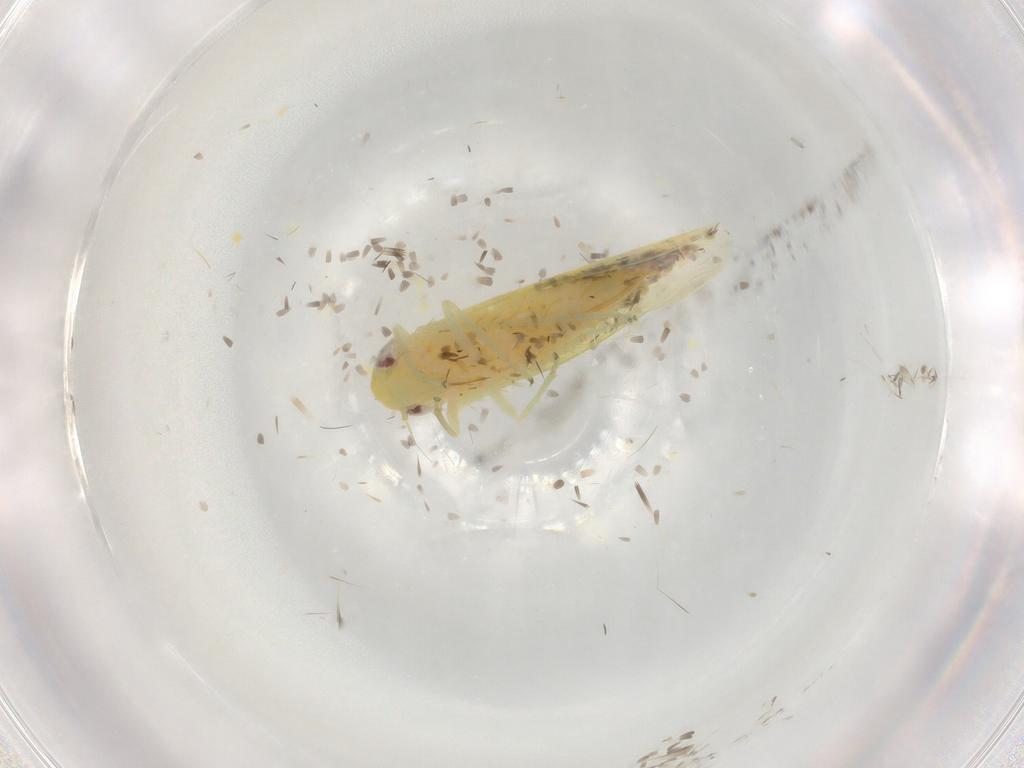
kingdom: Animalia
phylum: Arthropoda
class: Insecta
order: Hemiptera
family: Cicadellidae
